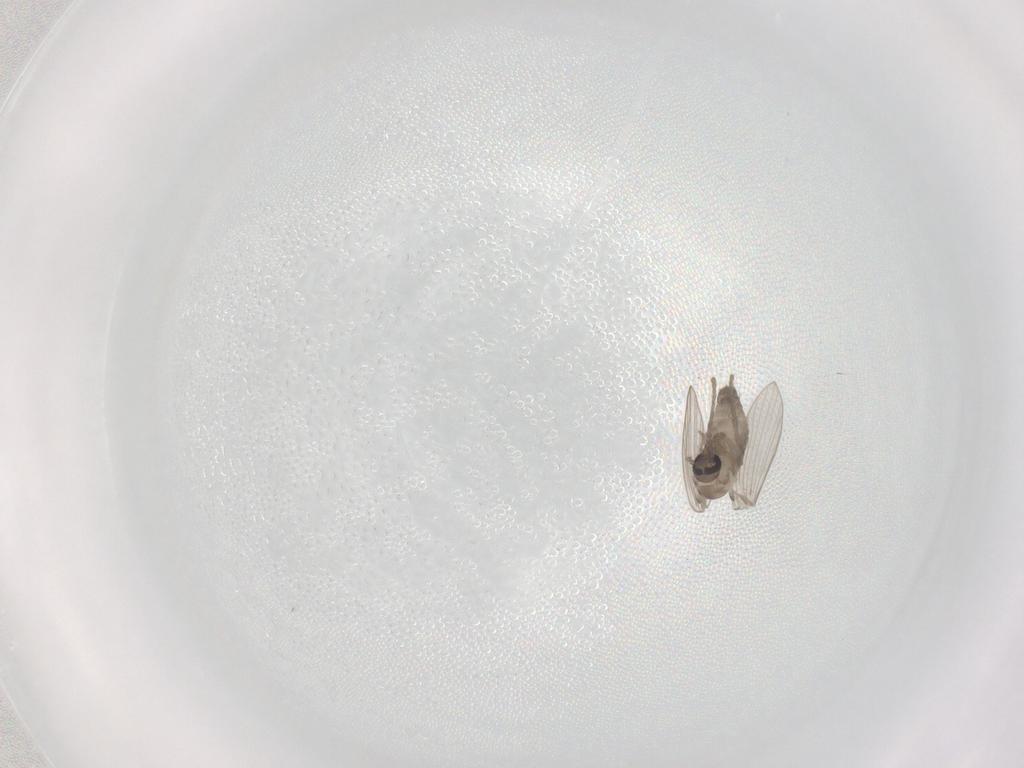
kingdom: Animalia
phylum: Arthropoda
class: Insecta
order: Diptera
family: Psychodidae
